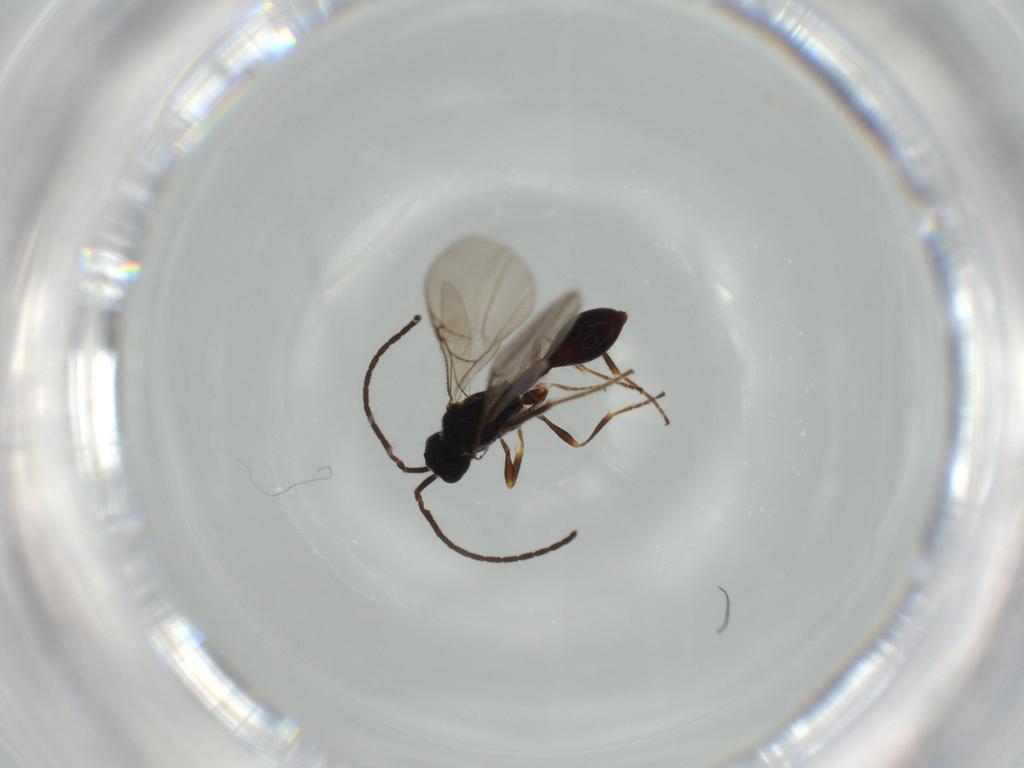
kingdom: Animalia
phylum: Arthropoda
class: Insecta
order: Hymenoptera
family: Diapriidae
